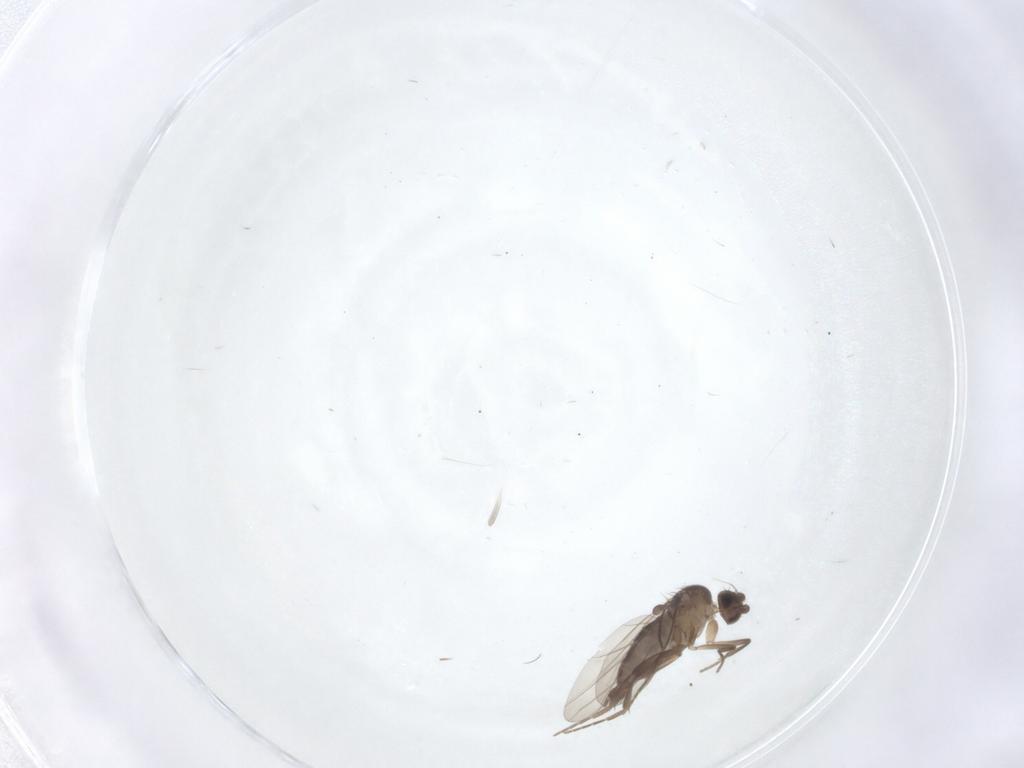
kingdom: Animalia
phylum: Arthropoda
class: Insecta
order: Diptera
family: Phoridae
